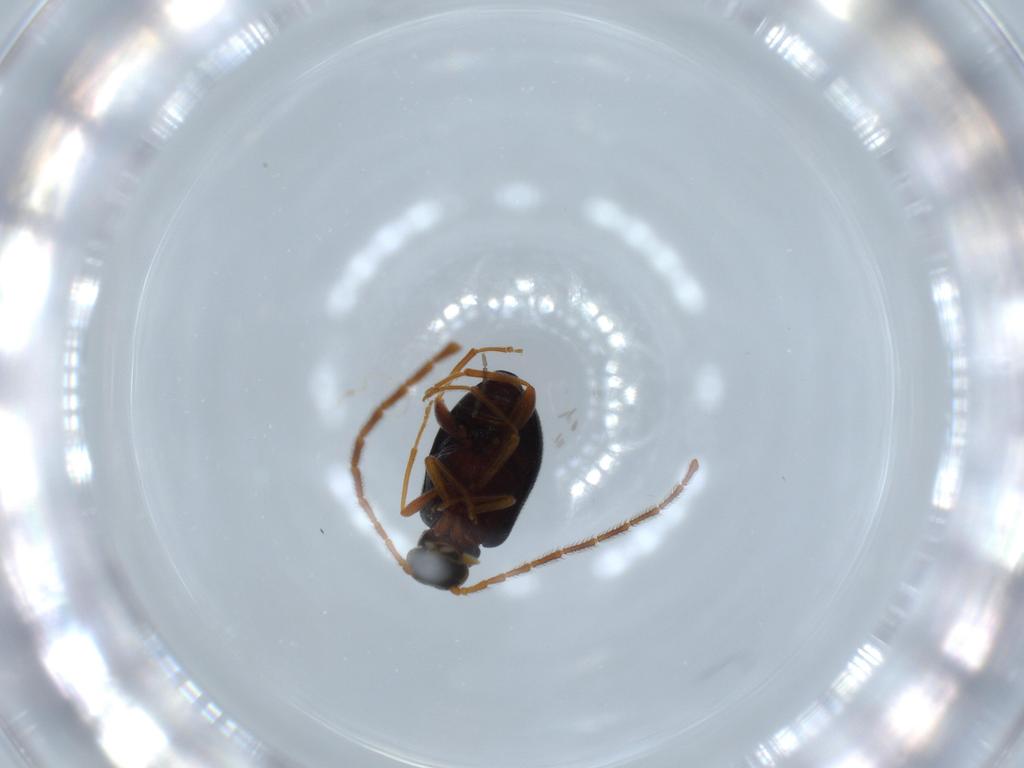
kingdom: Animalia
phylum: Arthropoda
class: Insecta
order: Coleoptera
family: Aderidae
